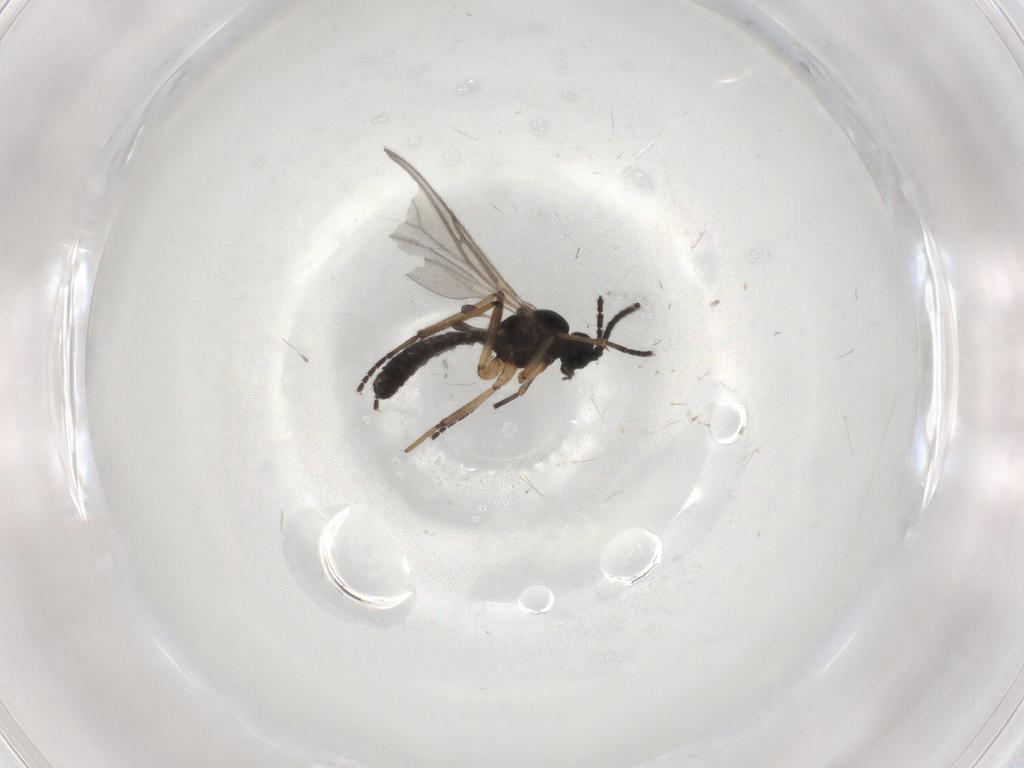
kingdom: Animalia
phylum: Arthropoda
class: Insecta
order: Diptera
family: Sciaridae
